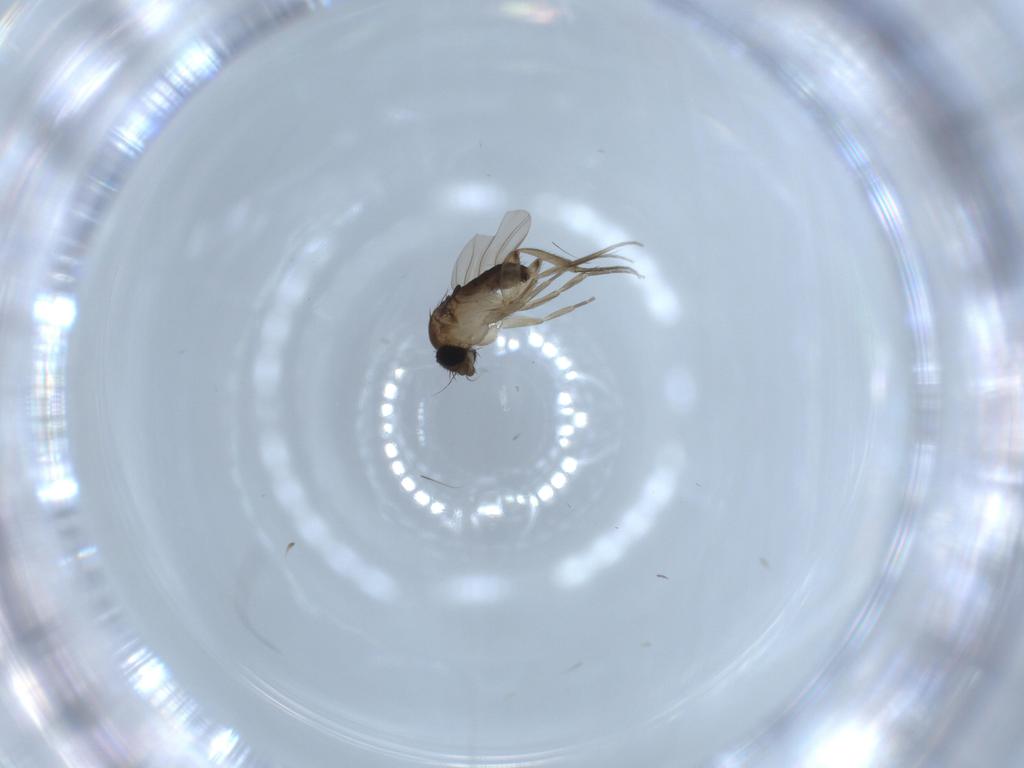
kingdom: Animalia
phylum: Arthropoda
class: Insecta
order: Diptera
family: Phoridae
